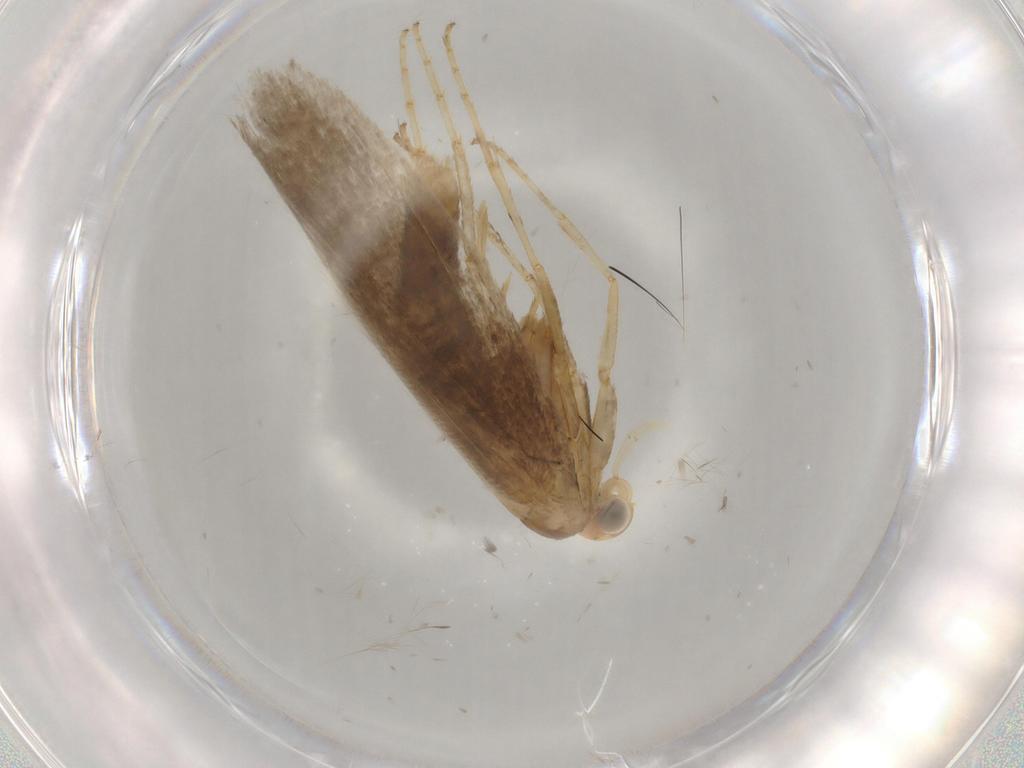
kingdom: Animalia
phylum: Arthropoda
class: Insecta
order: Lepidoptera
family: Argyresthiidae
